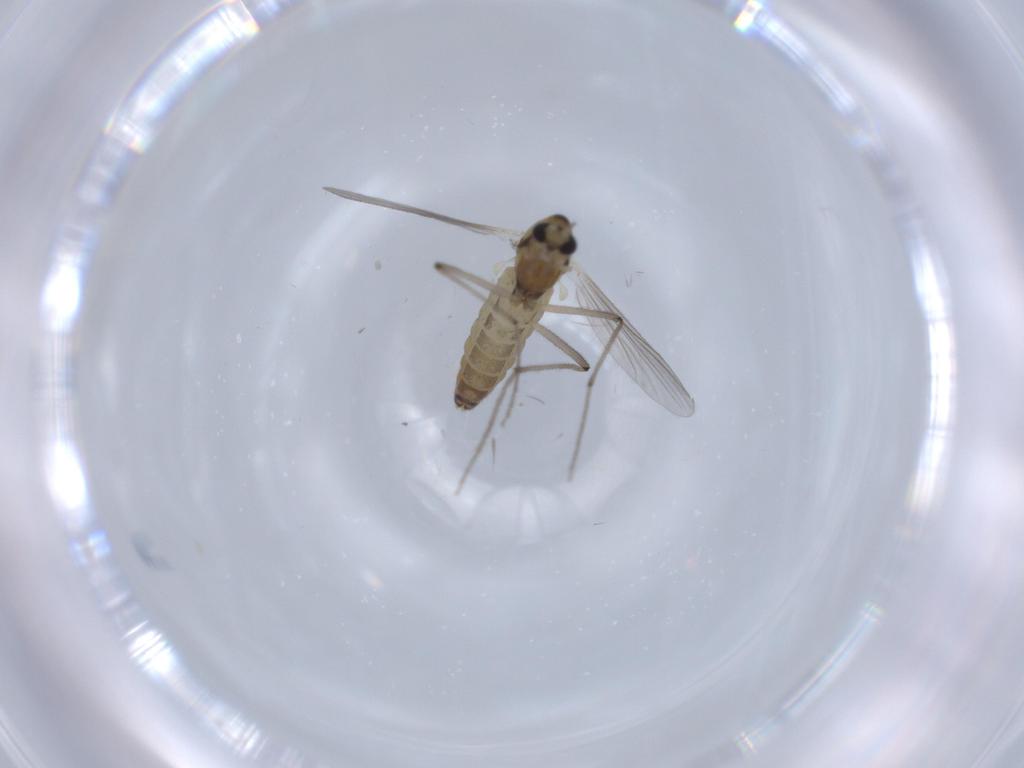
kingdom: Animalia
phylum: Arthropoda
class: Insecta
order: Diptera
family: Chironomidae
